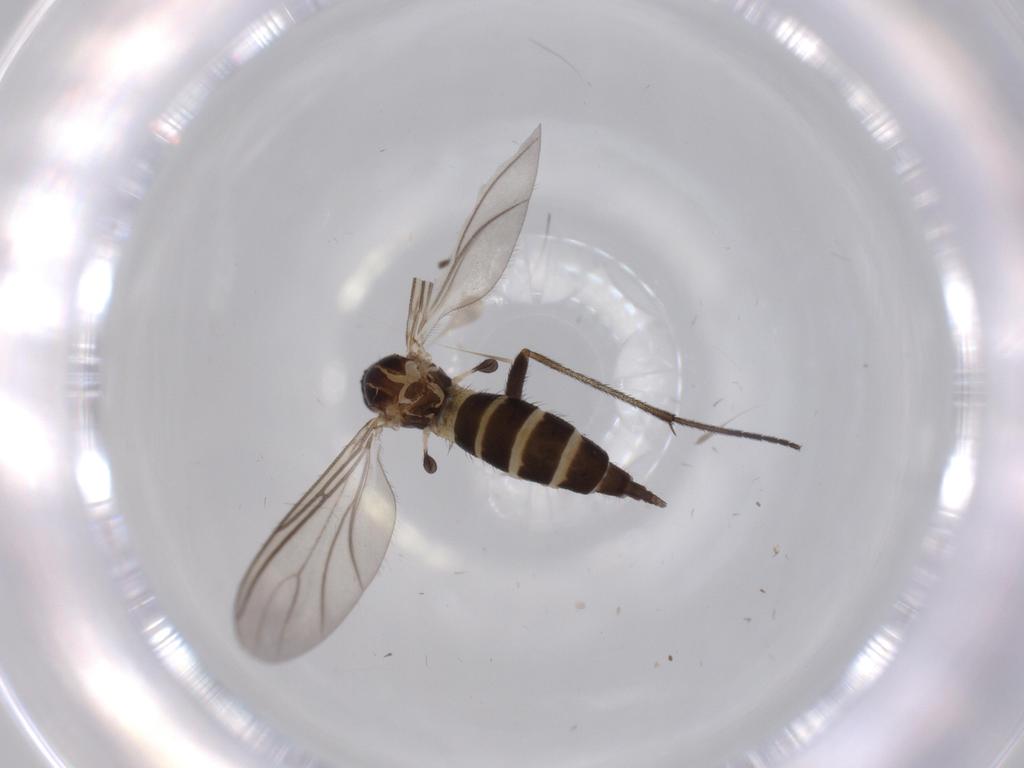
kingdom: Animalia
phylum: Arthropoda
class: Insecta
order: Diptera
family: Sciaridae
